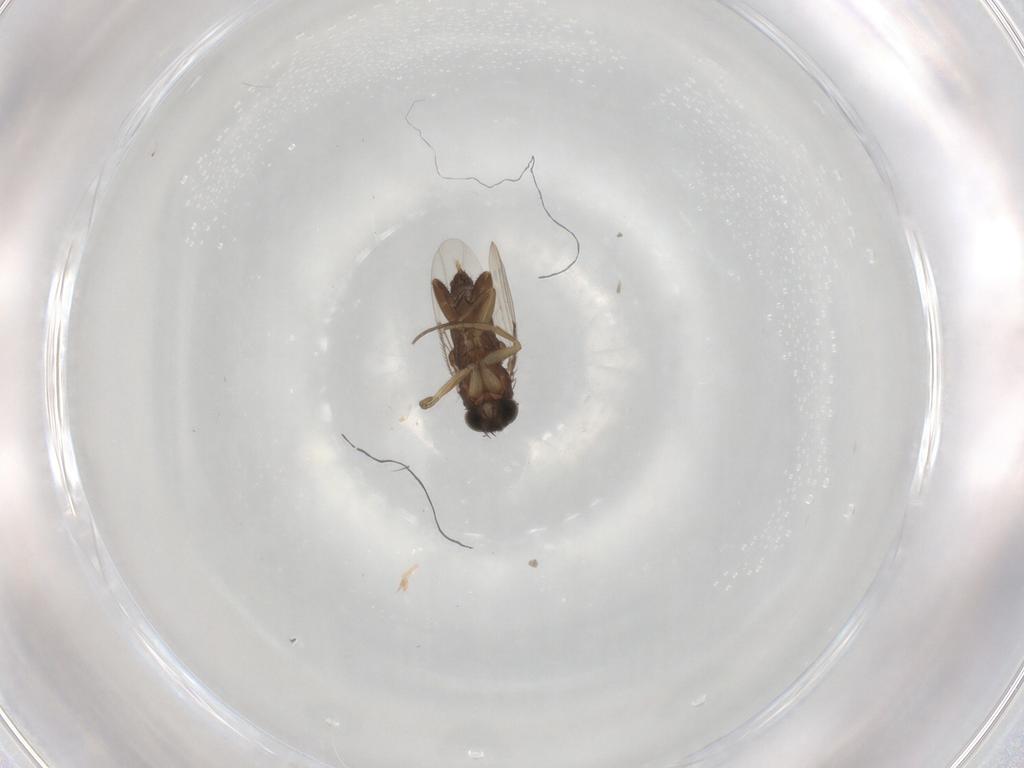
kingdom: Animalia
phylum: Arthropoda
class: Insecta
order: Diptera
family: Phoridae
